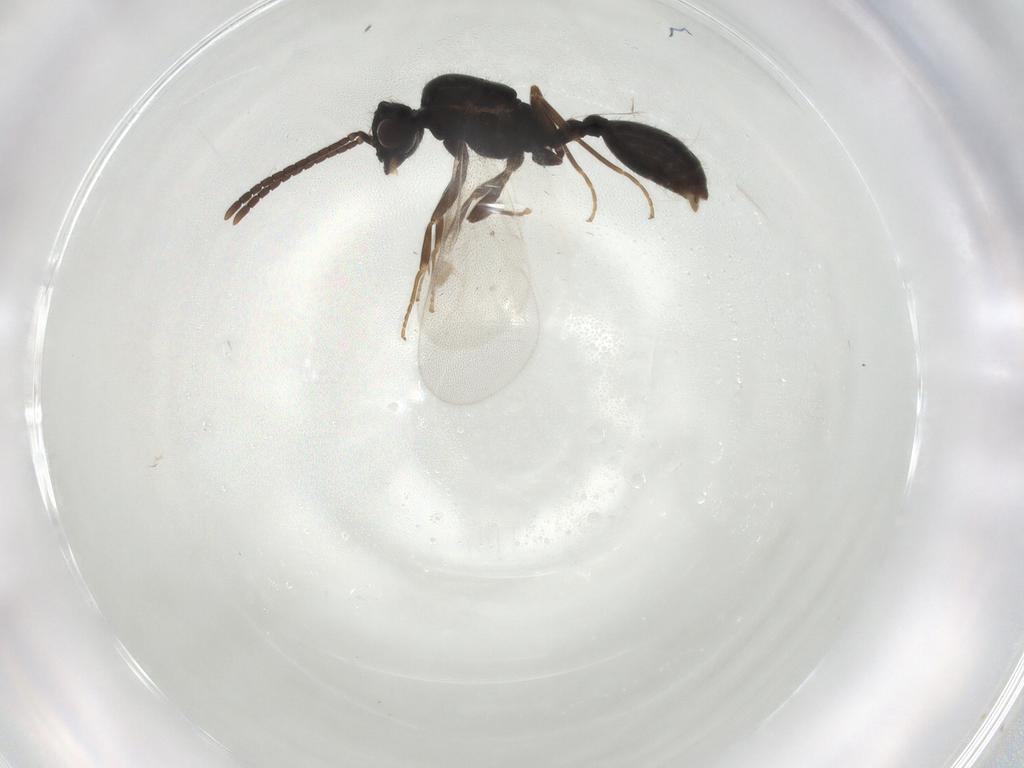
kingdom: Animalia
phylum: Arthropoda
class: Insecta
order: Hymenoptera
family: Formicidae
